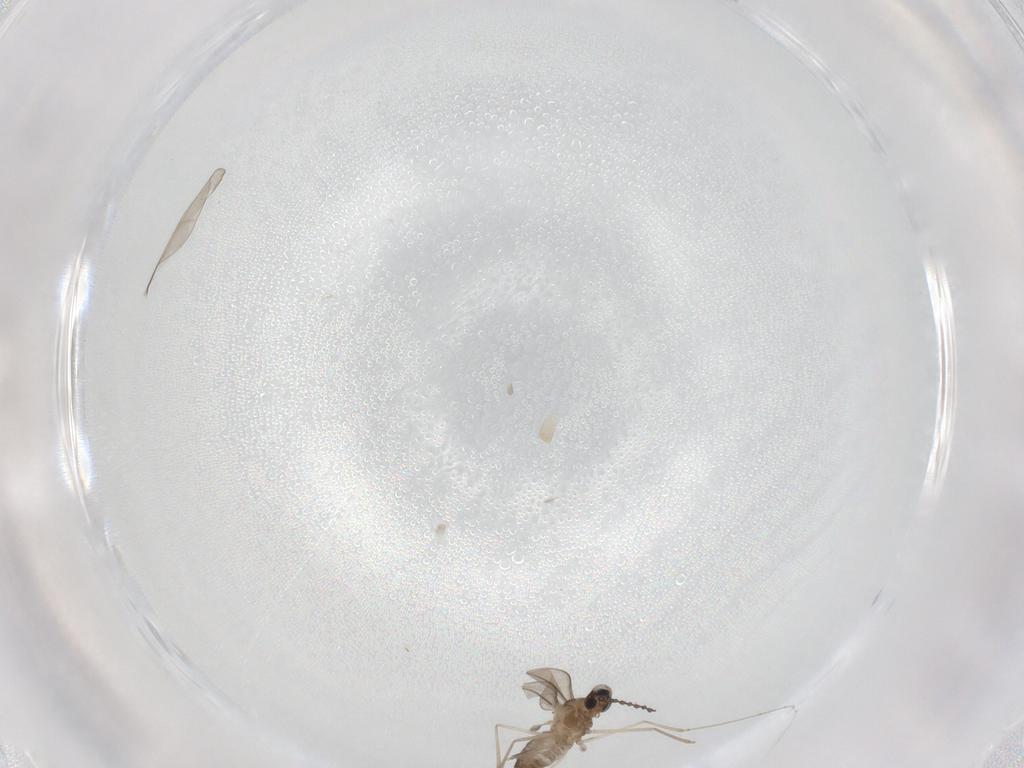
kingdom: Animalia
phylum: Arthropoda
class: Insecta
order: Diptera
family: Cecidomyiidae
